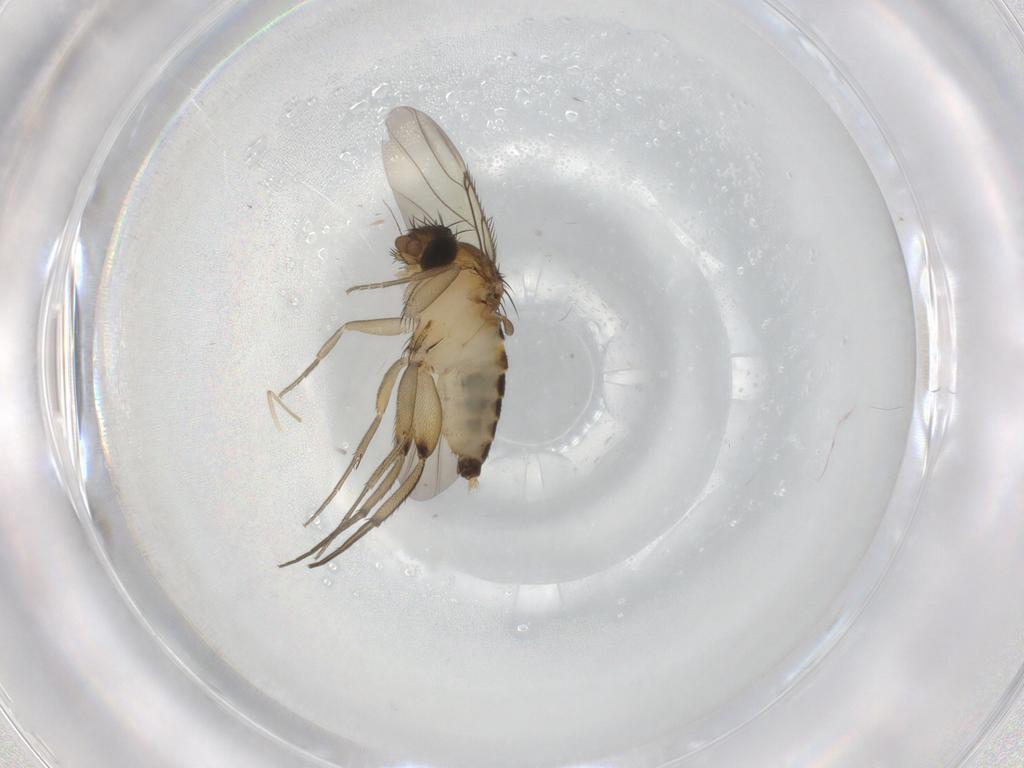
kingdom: Animalia
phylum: Arthropoda
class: Insecta
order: Diptera
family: Phoridae
